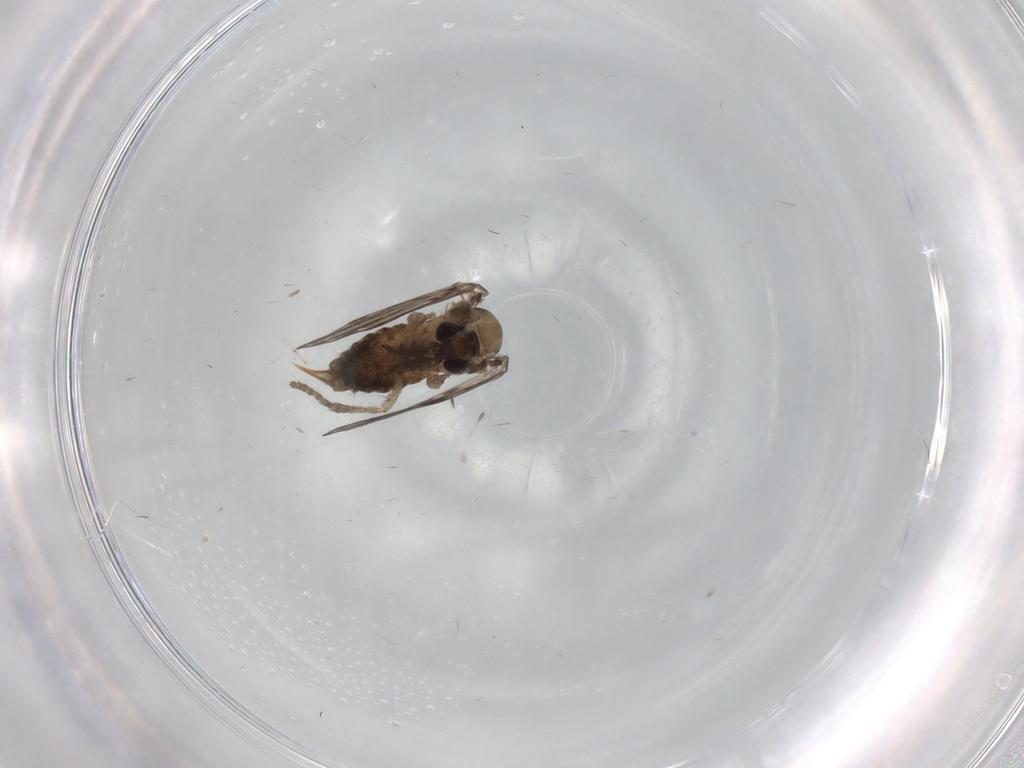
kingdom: Animalia
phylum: Arthropoda
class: Insecta
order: Diptera
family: Psychodidae
